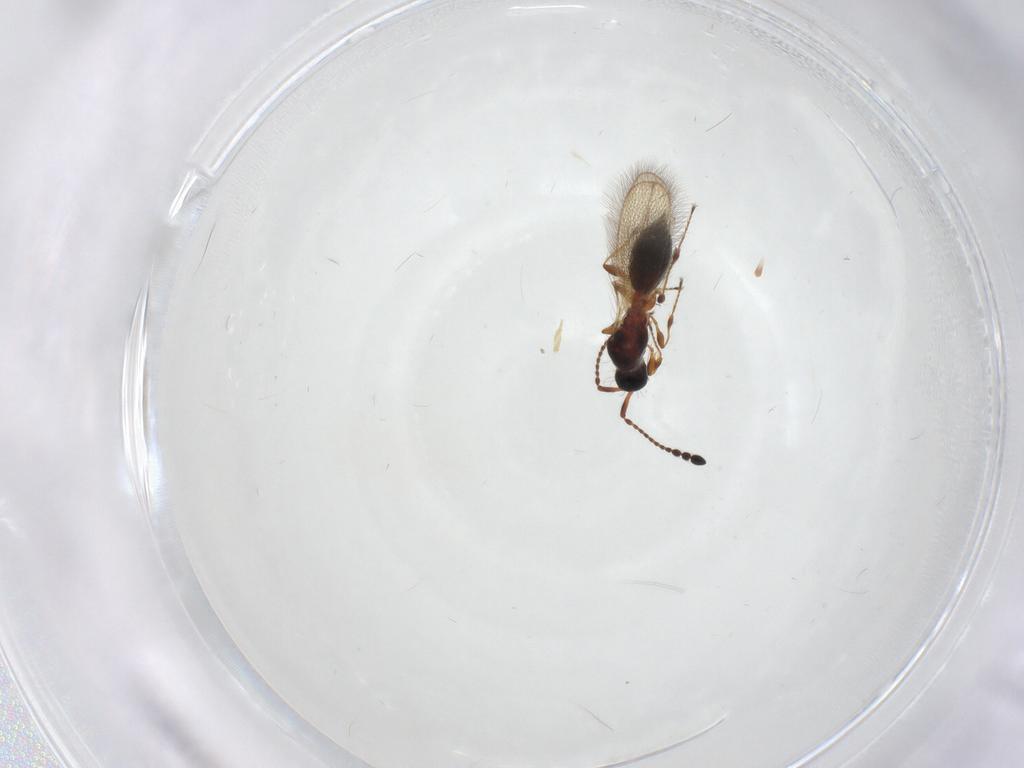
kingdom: Animalia
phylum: Arthropoda
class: Insecta
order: Hymenoptera
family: Diapriidae
